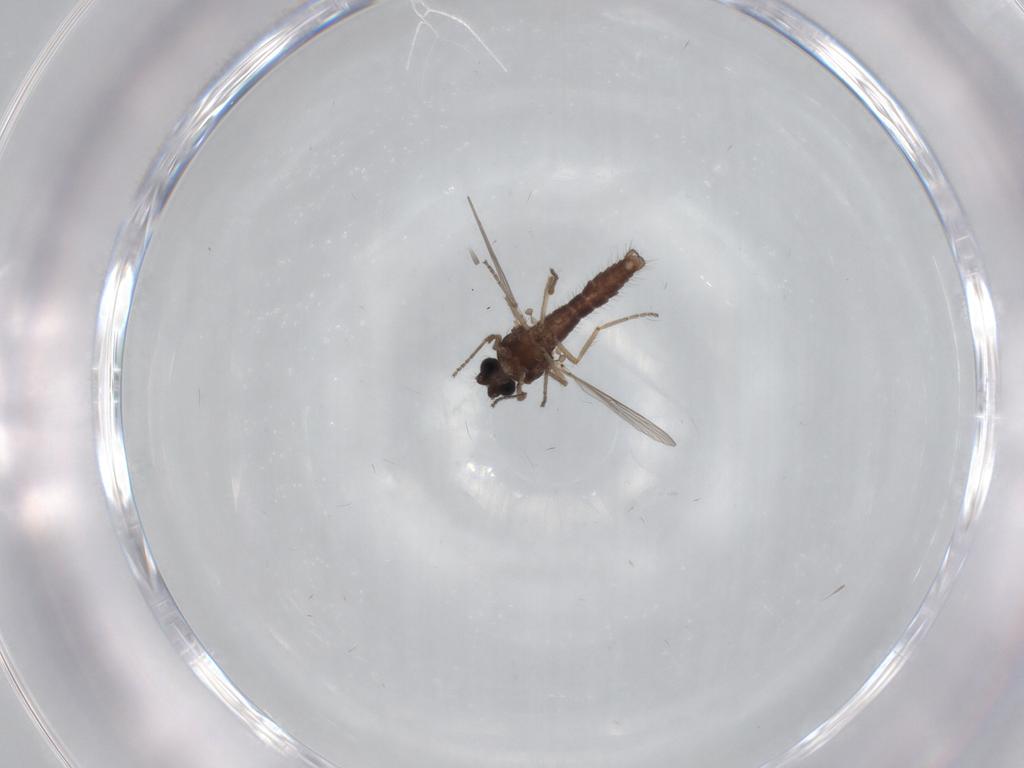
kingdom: Animalia
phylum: Arthropoda
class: Insecta
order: Diptera
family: Ceratopogonidae
